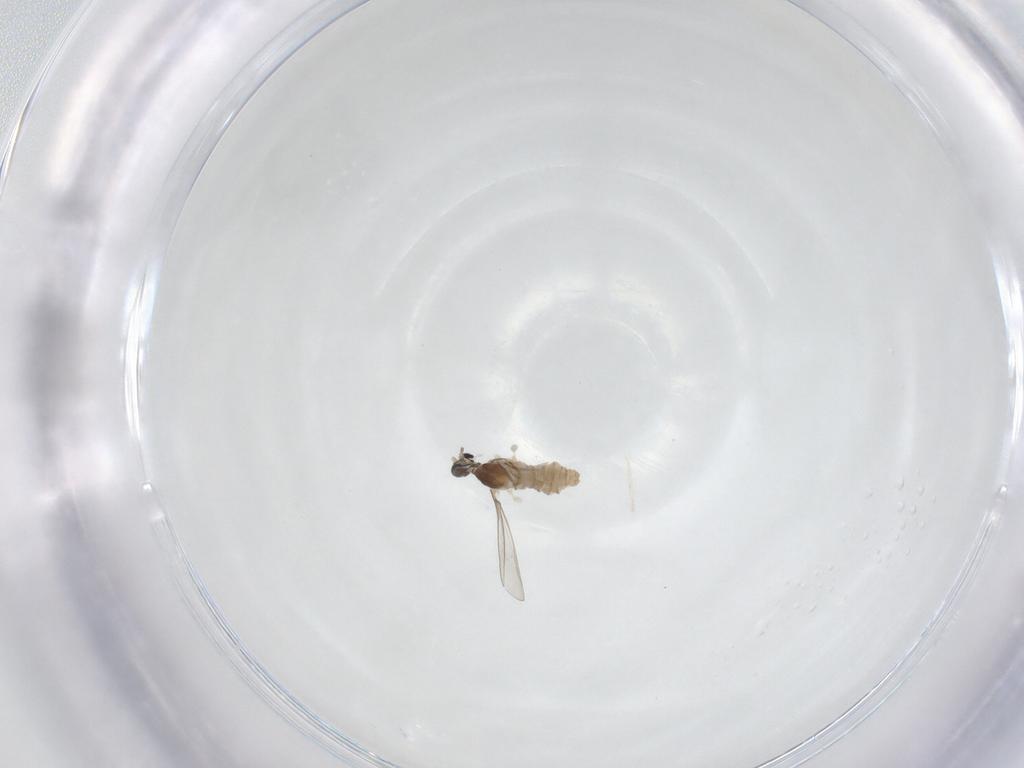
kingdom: Animalia
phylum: Arthropoda
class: Insecta
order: Diptera
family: Cecidomyiidae
